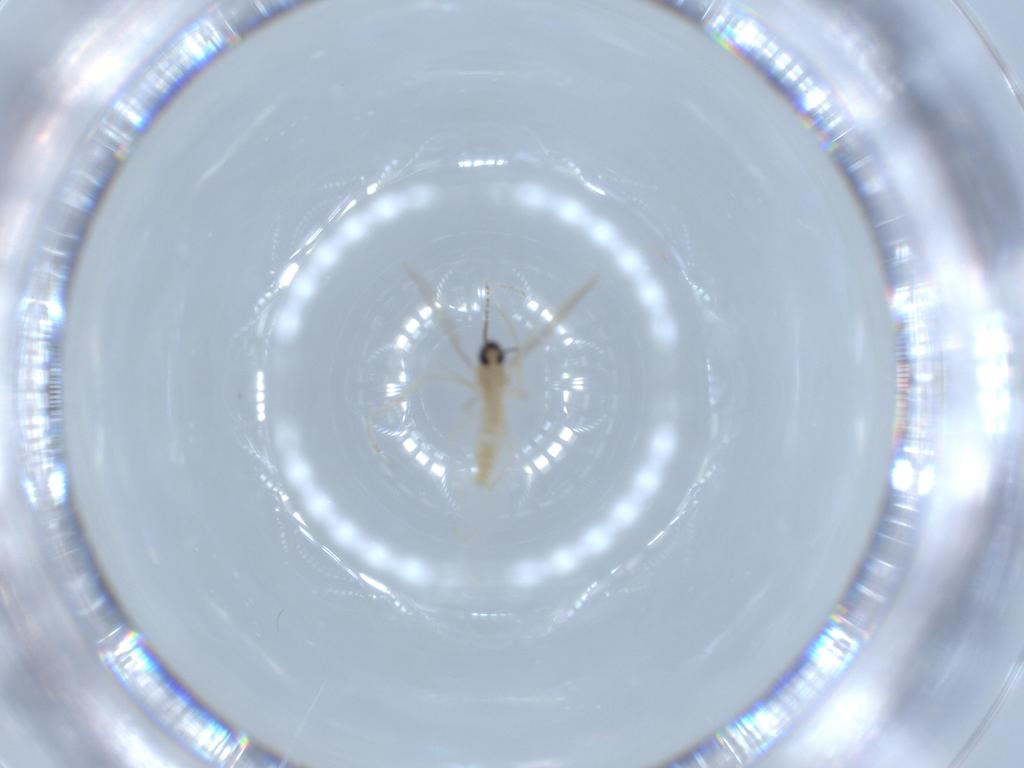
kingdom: Animalia
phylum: Arthropoda
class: Insecta
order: Diptera
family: Cecidomyiidae
